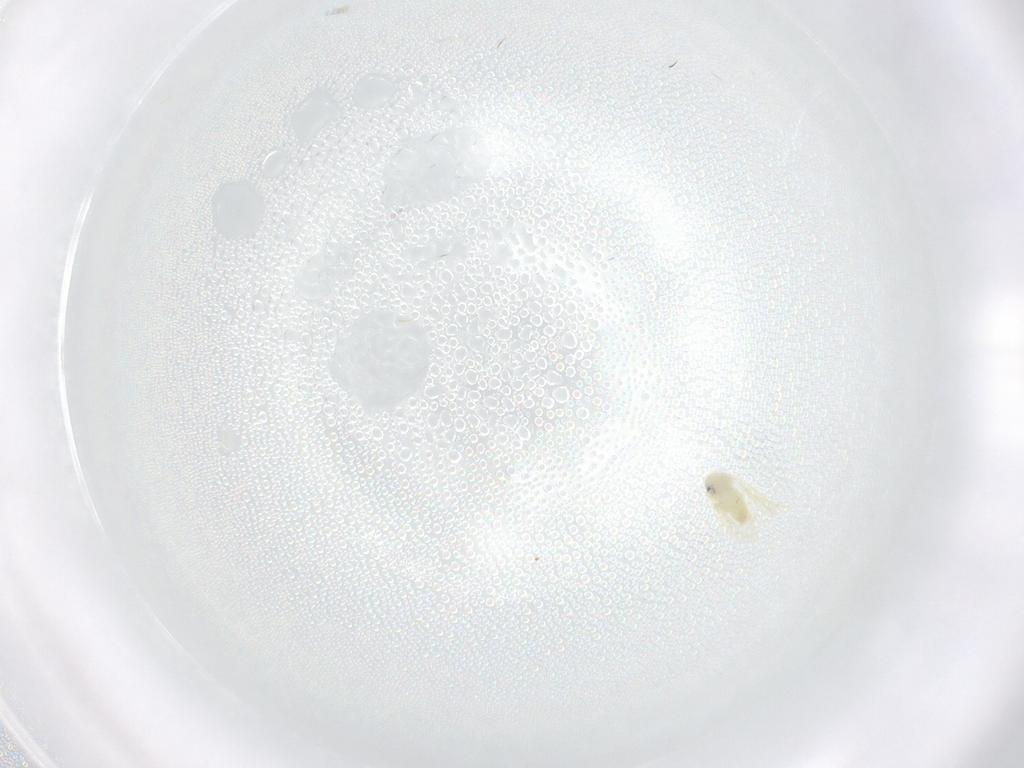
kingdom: Animalia
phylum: Arthropoda
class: Insecta
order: Hemiptera
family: Aleyrodidae
